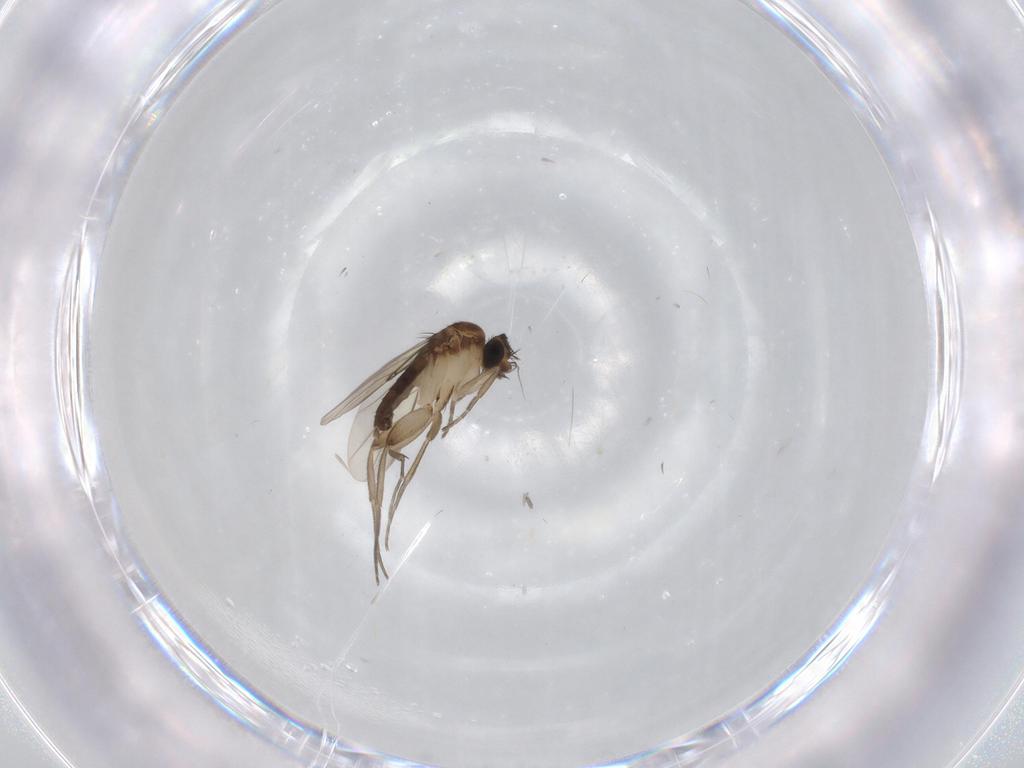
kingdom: Animalia
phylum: Arthropoda
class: Insecta
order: Diptera
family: Phoridae
